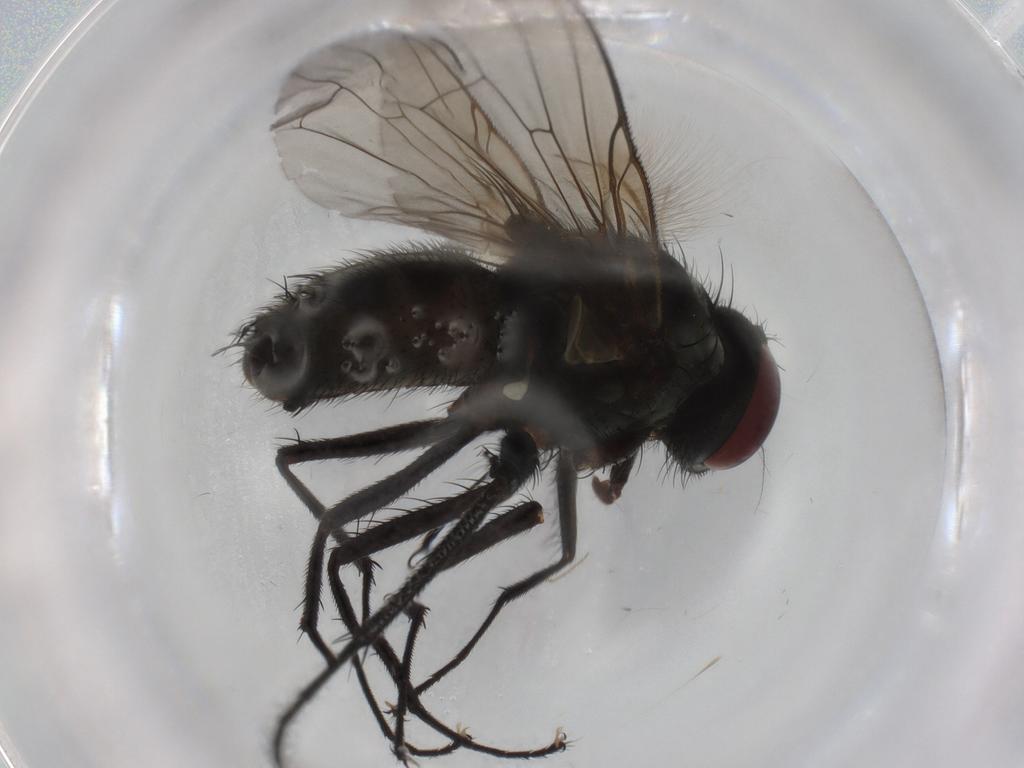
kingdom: Animalia
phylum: Arthropoda
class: Insecta
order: Diptera
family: Muscidae
